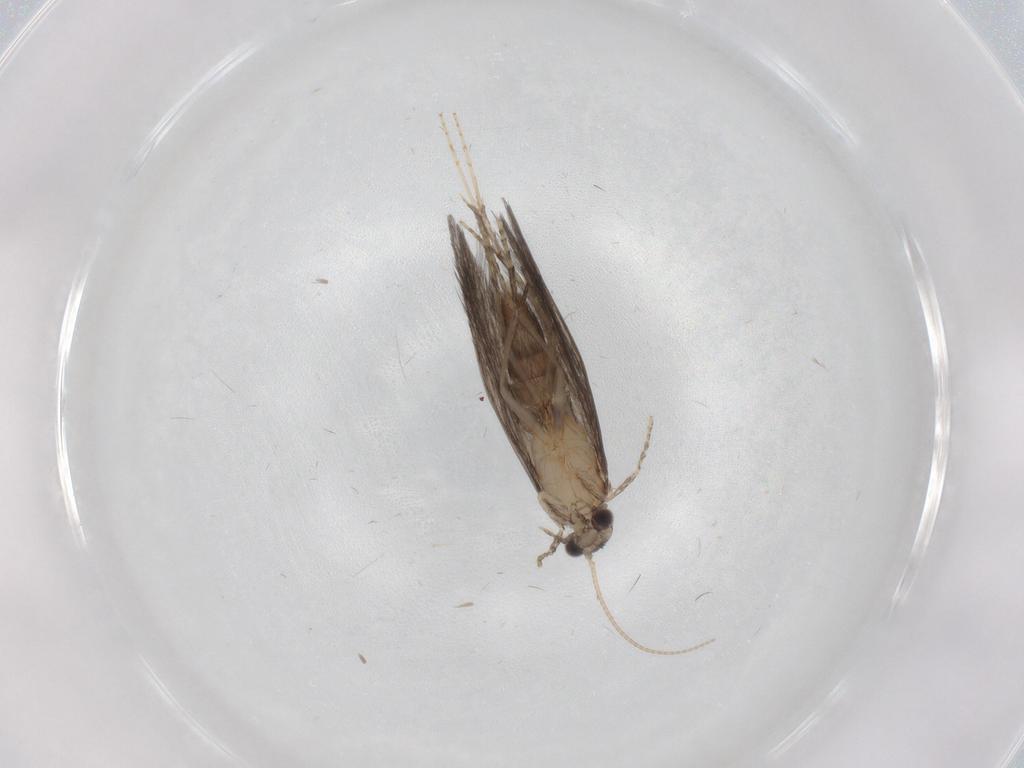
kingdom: Animalia
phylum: Arthropoda
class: Insecta
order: Trichoptera
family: Hydroptilidae
